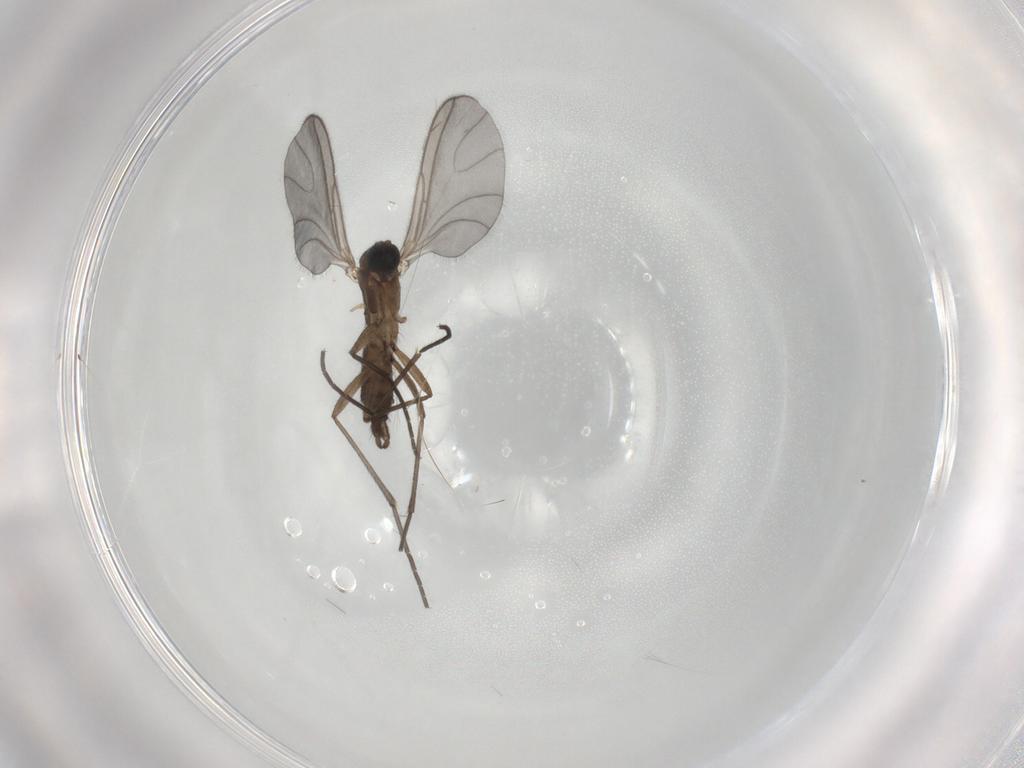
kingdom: Animalia
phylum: Arthropoda
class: Insecta
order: Diptera
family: Sciaridae
